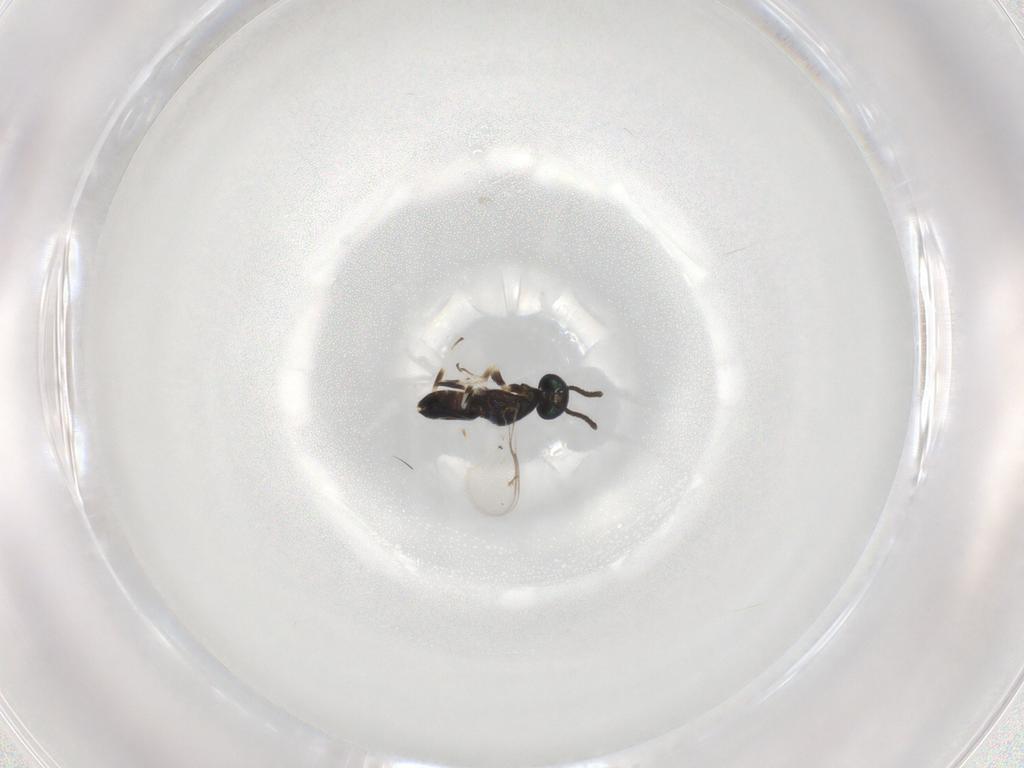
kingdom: Animalia
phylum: Arthropoda
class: Insecta
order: Hymenoptera
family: Eupelmidae
